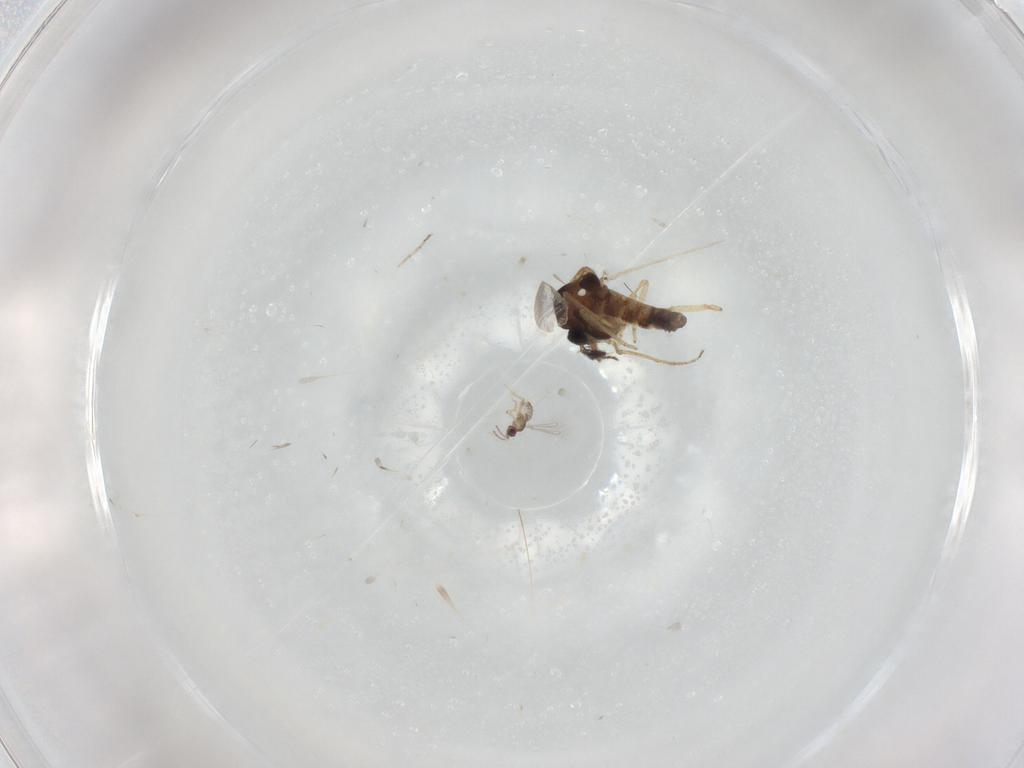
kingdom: Animalia
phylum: Arthropoda
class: Insecta
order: Diptera
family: Ceratopogonidae
